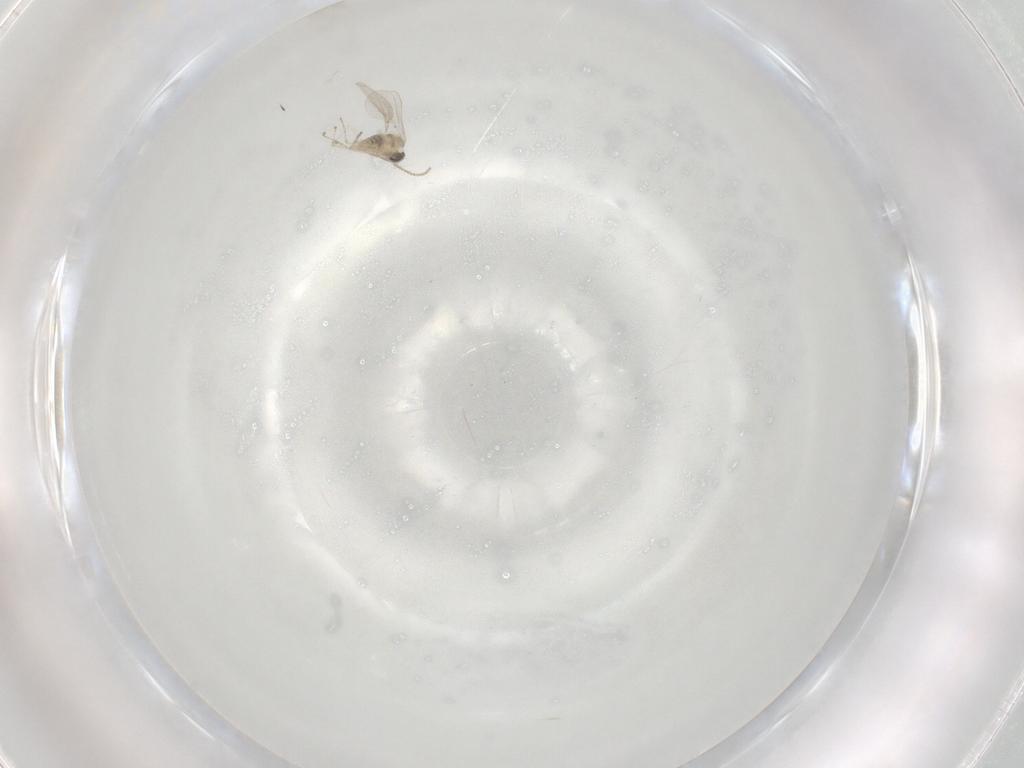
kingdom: Animalia
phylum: Arthropoda
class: Insecta
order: Diptera
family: Cecidomyiidae
